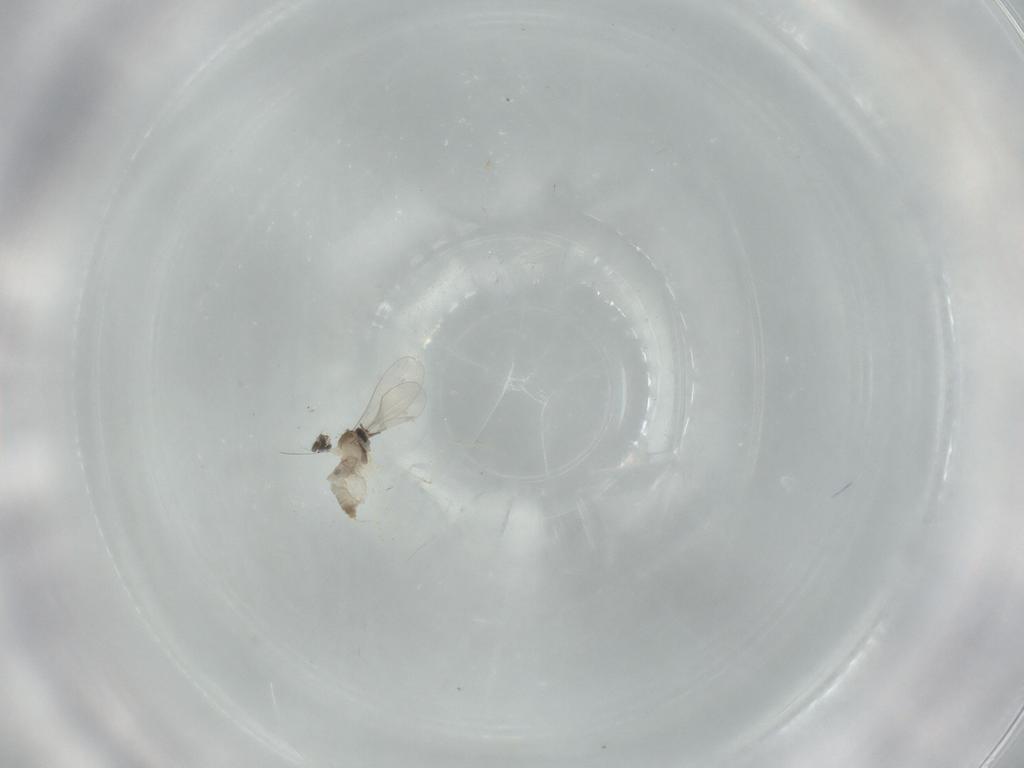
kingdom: Animalia
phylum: Arthropoda
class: Insecta
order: Diptera
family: Cecidomyiidae
